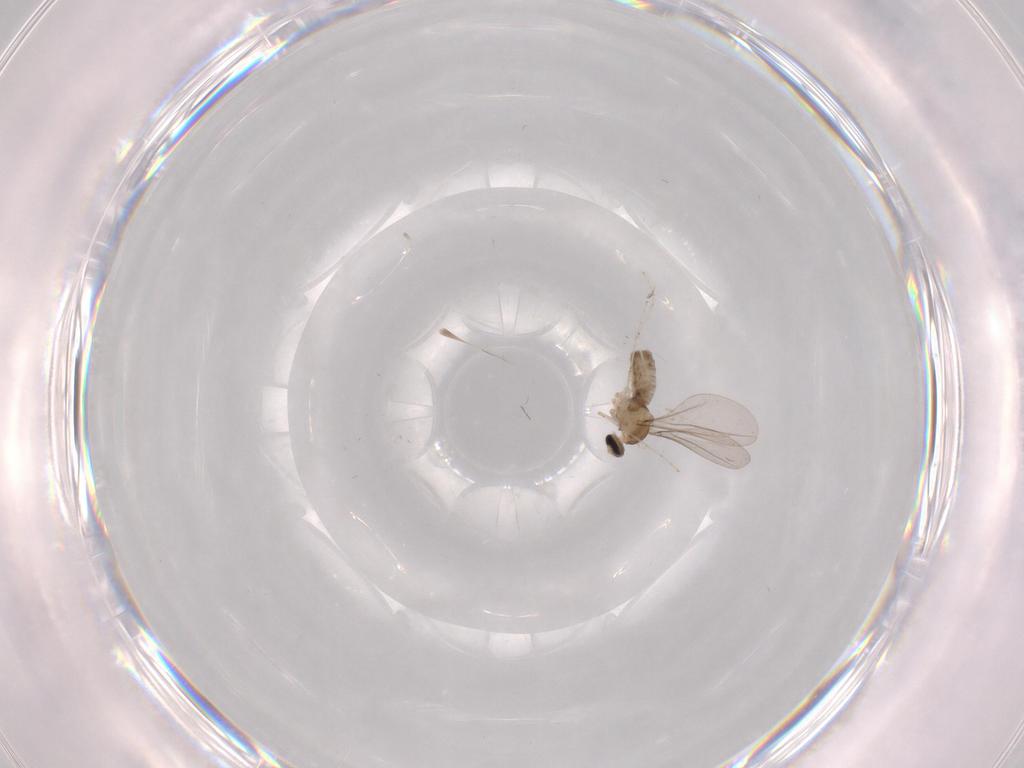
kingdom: Animalia
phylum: Arthropoda
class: Insecta
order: Diptera
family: Cecidomyiidae
